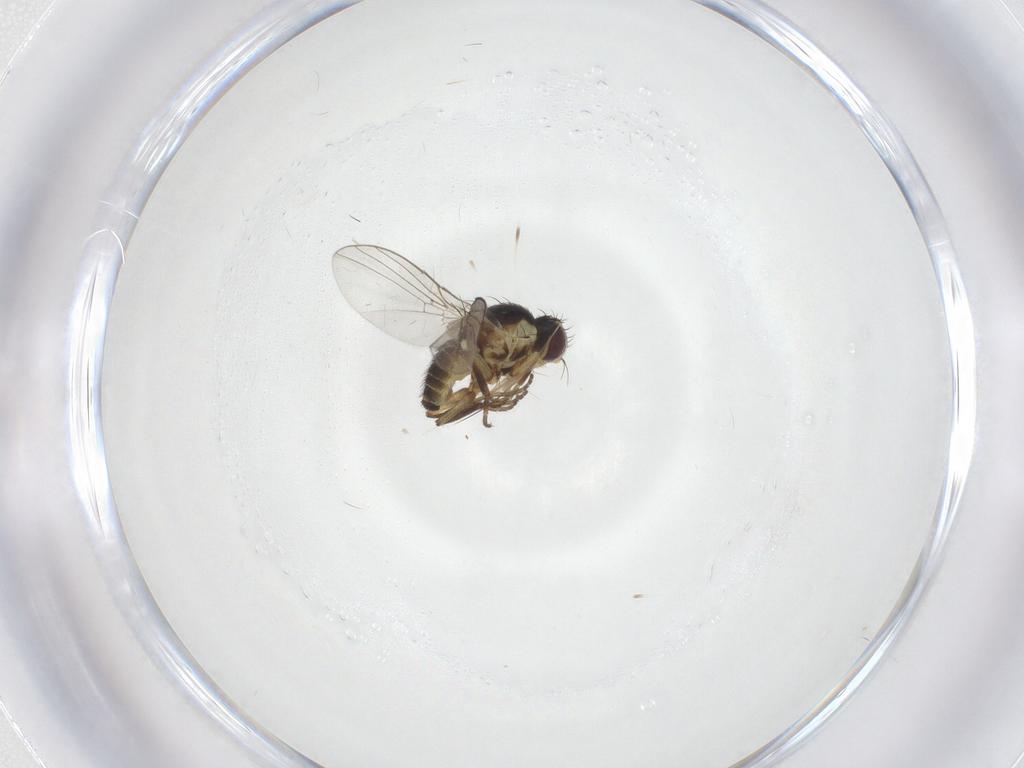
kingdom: Animalia
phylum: Arthropoda
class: Insecta
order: Diptera
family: Agromyzidae
